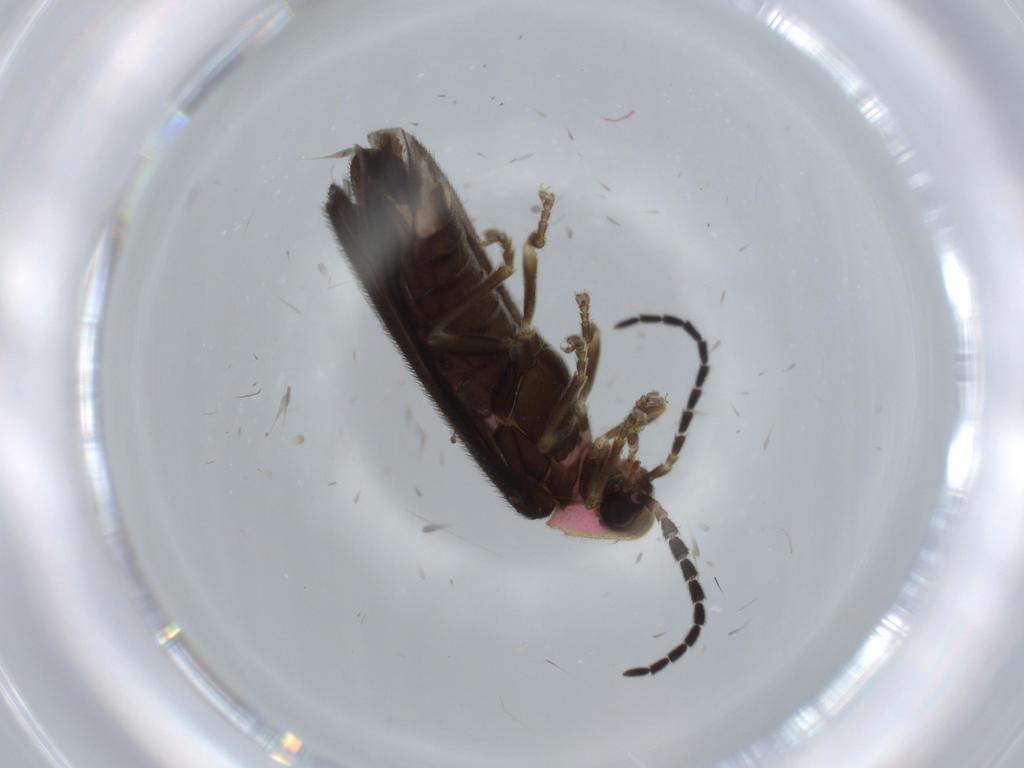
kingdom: Animalia
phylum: Arthropoda
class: Insecta
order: Coleoptera
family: Lampyridae
